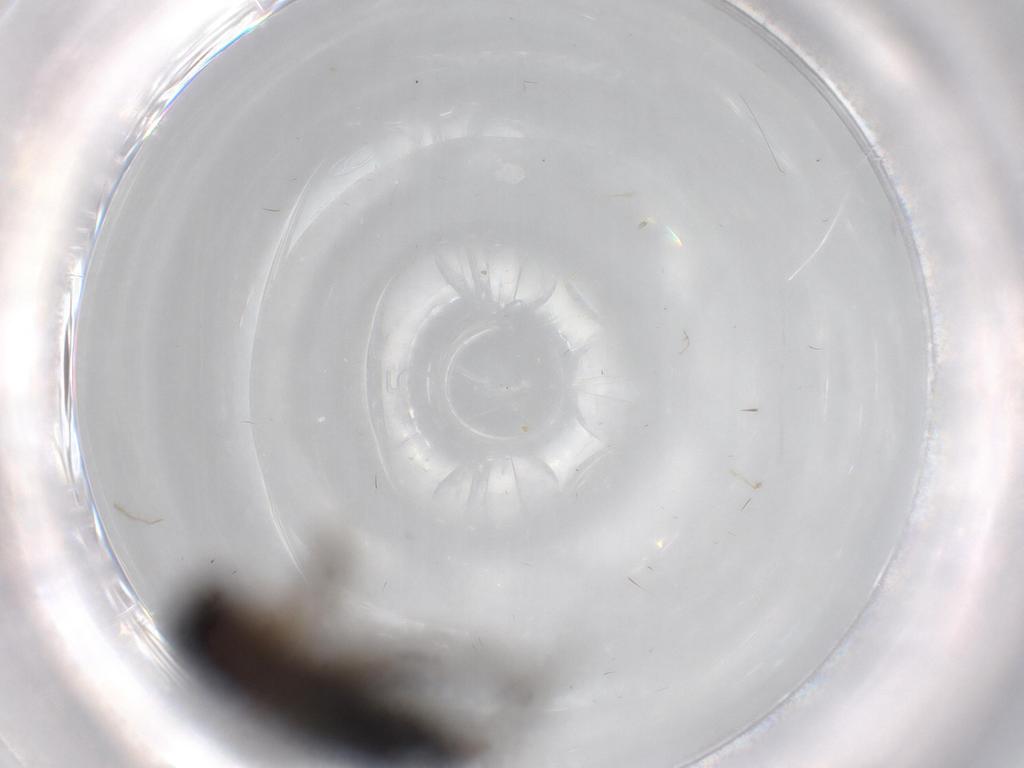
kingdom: Animalia
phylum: Arthropoda
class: Insecta
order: Diptera
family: Phoridae
